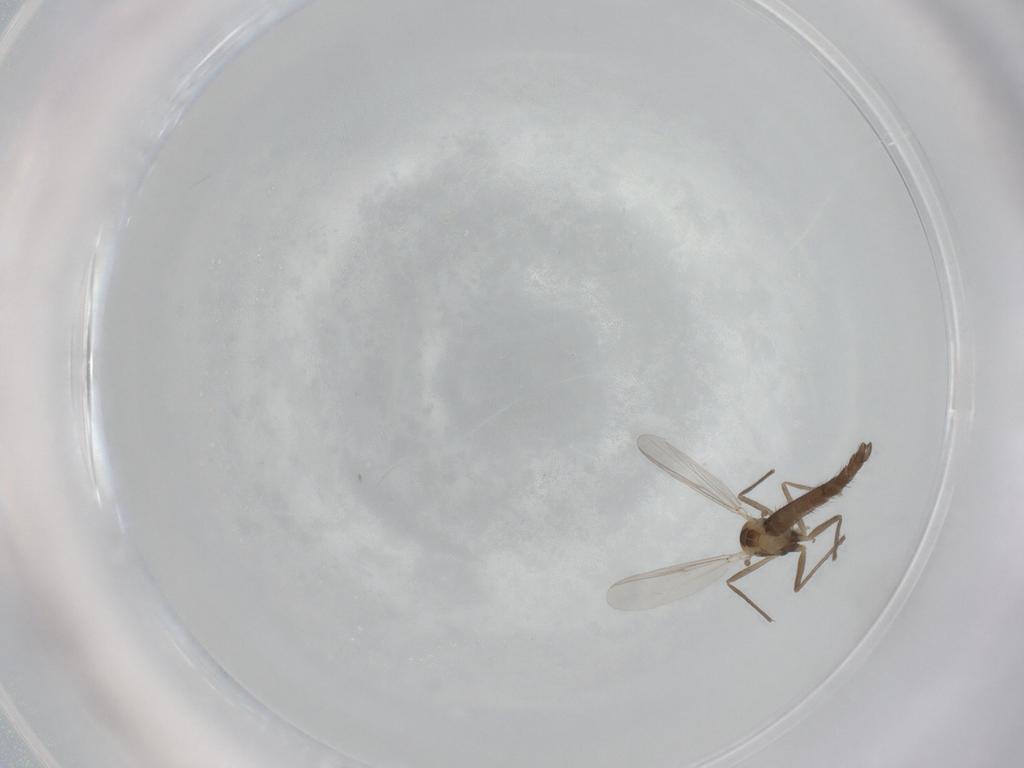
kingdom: Animalia
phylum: Arthropoda
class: Insecta
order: Diptera
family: Chironomidae
